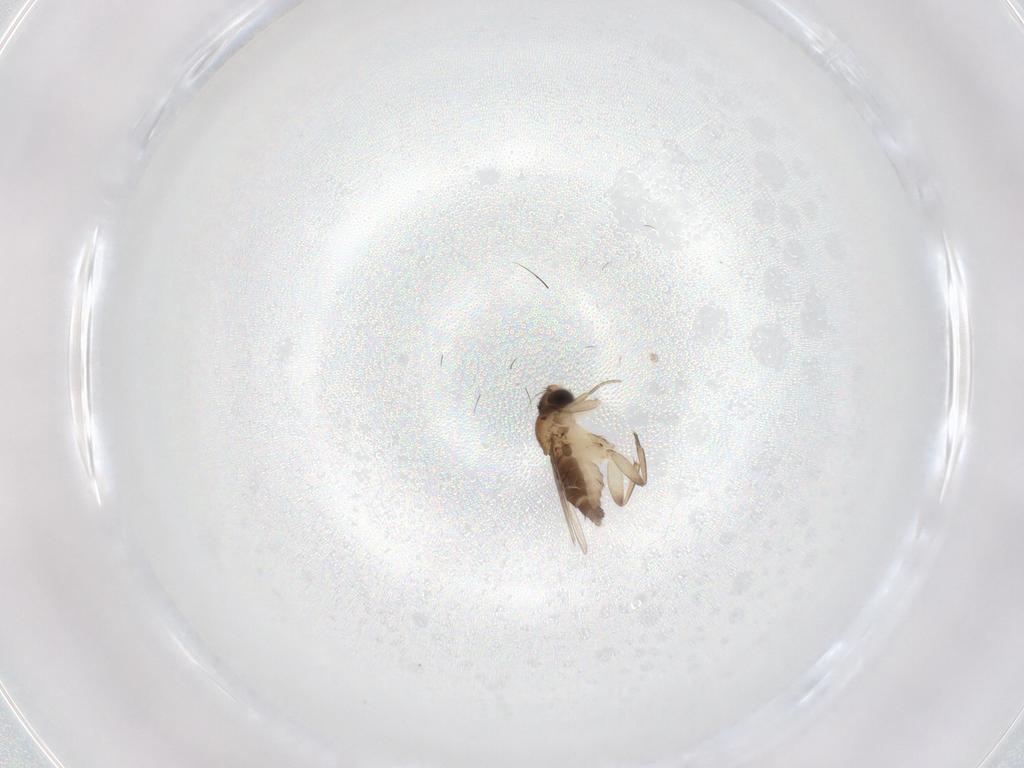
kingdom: Animalia
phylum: Arthropoda
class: Insecta
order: Diptera
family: Phoridae
